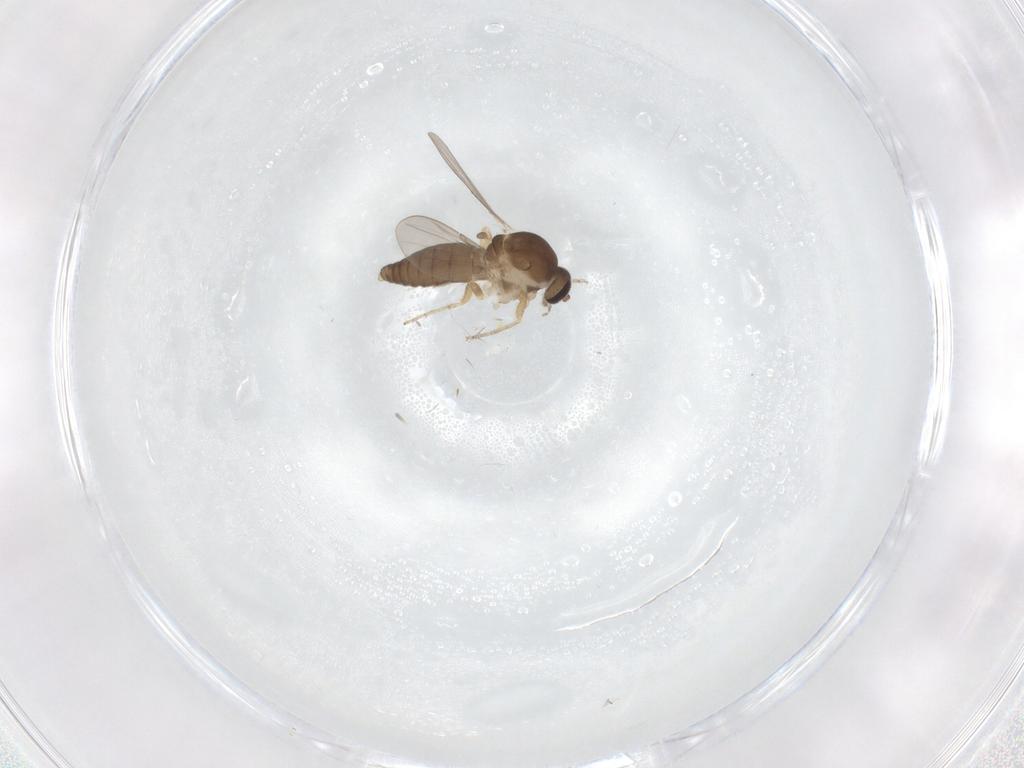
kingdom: Animalia
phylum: Arthropoda
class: Insecta
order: Diptera
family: Ceratopogonidae
